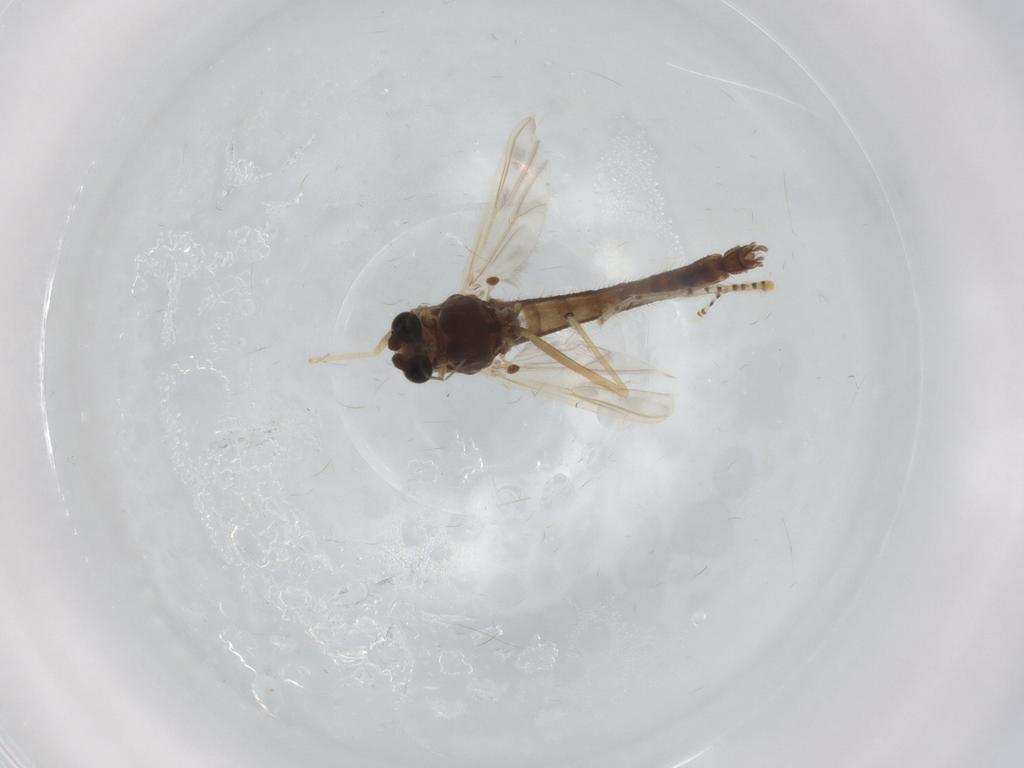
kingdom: Animalia
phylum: Arthropoda
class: Insecta
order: Diptera
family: Chironomidae
